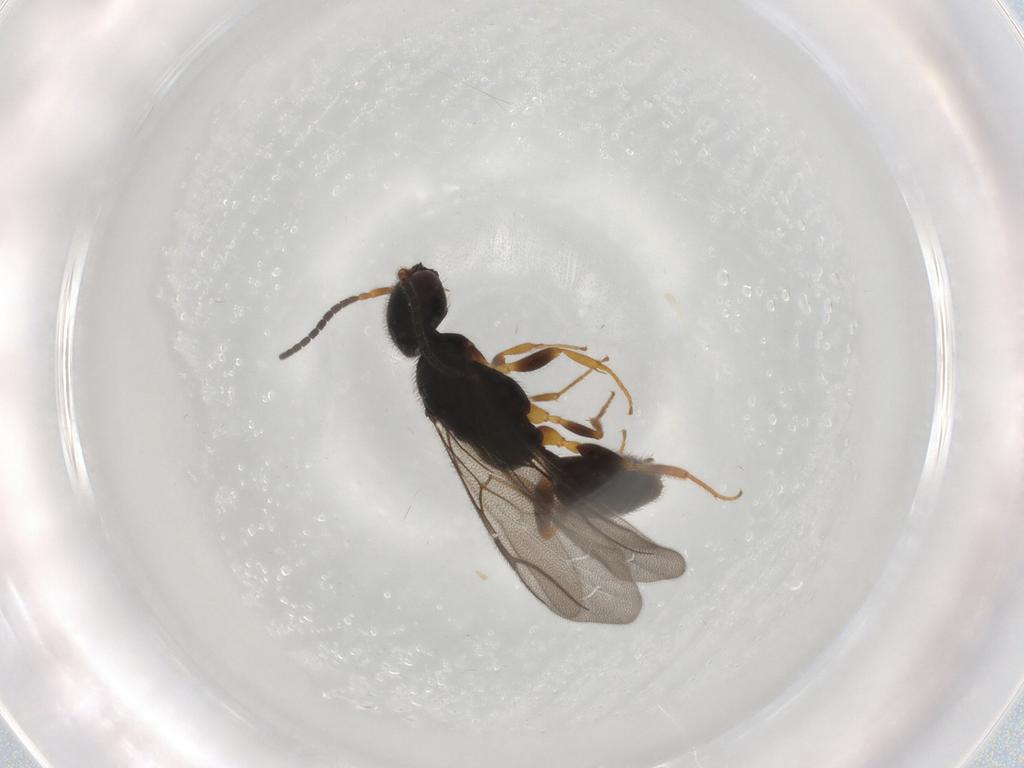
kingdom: Animalia
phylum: Arthropoda
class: Insecta
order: Hymenoptera
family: Bethylidae
